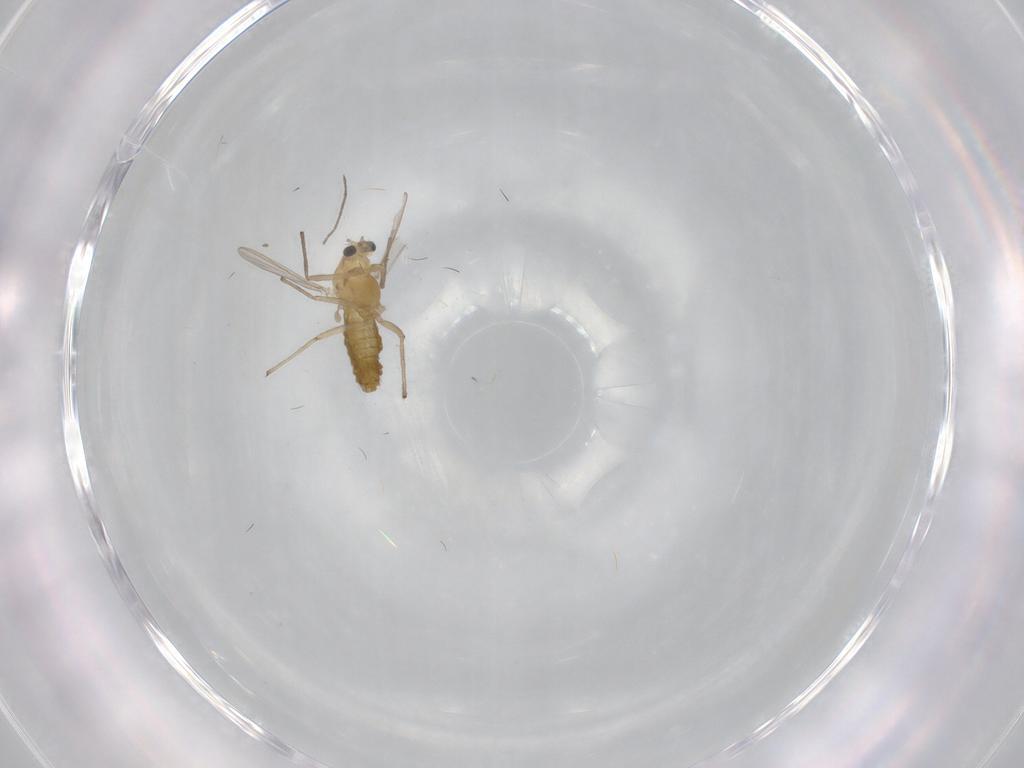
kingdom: Animalia
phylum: Arthropoda
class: Insecta
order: Diptera
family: Chironomidae
